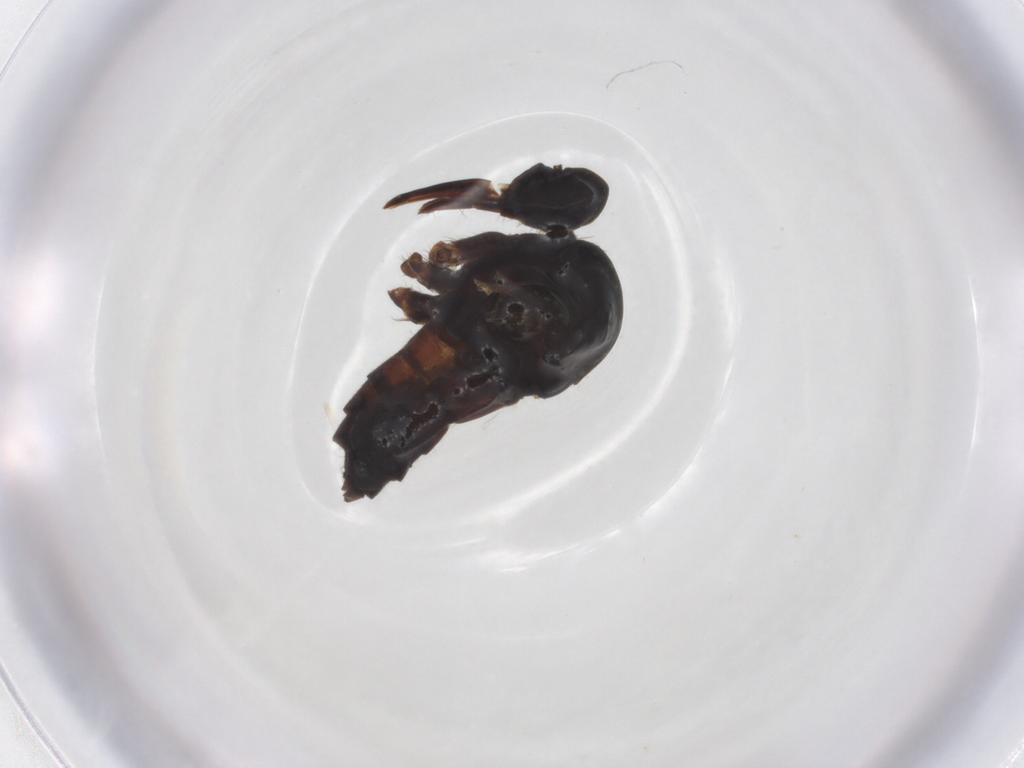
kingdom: Animalia
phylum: Arthropoda
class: Insecta
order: Diptera
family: Empididae
